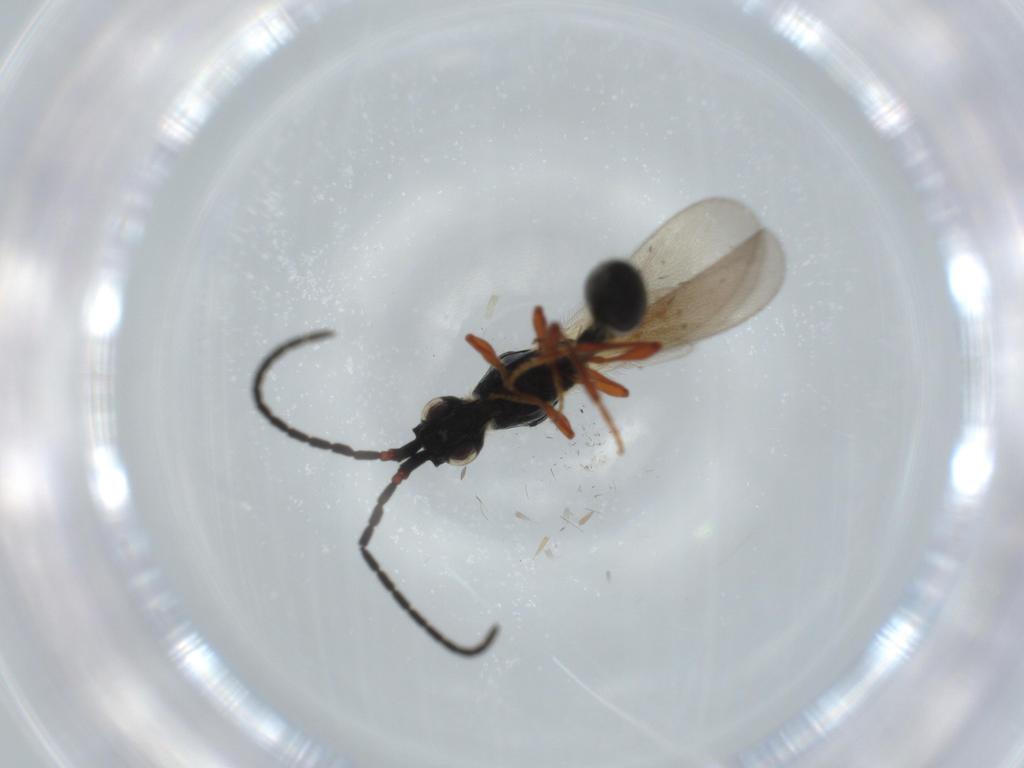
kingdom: Animalia
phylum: Arthropoda
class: Insecta
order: Hymenoptera
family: Diapriidae
